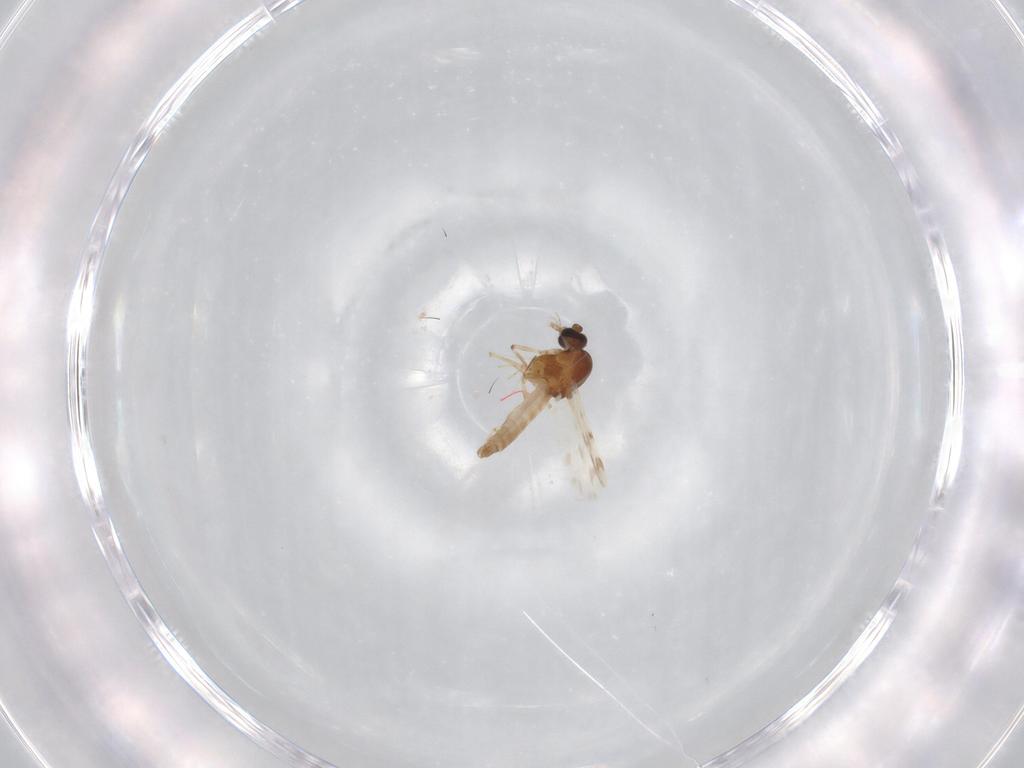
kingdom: Animalia
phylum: Arthropoda
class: Insecta
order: Diptera
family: Phoridae
